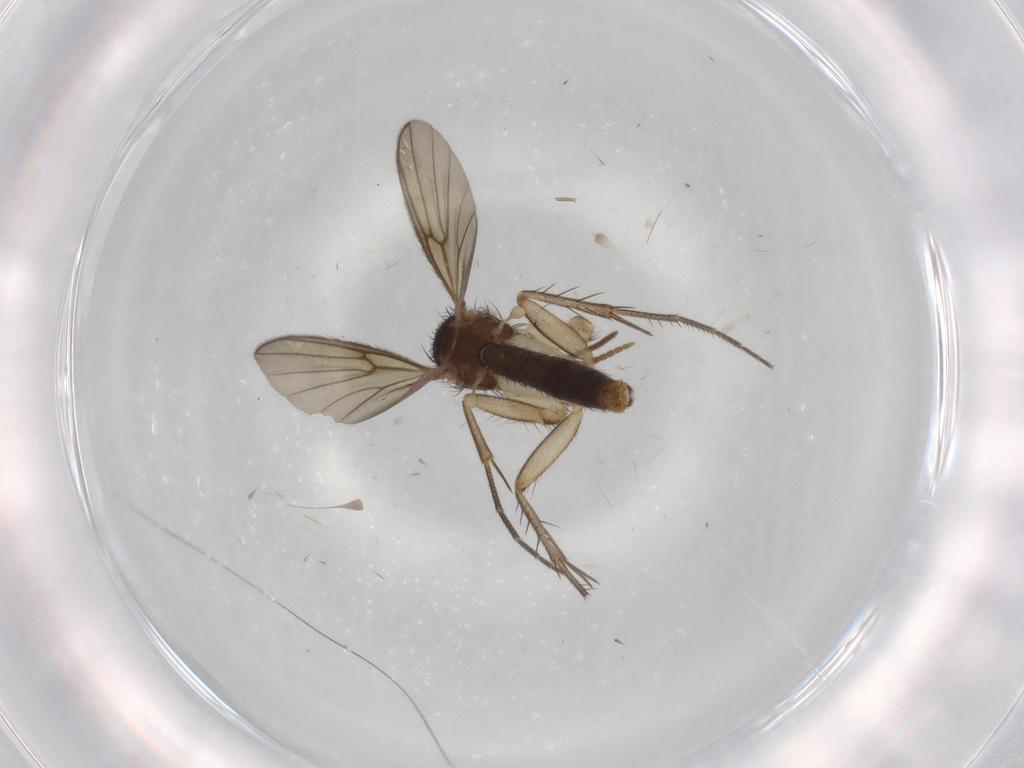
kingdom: Animalia
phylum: Arthropoda
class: Insecta
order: Diptera
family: Mycetophilidae
